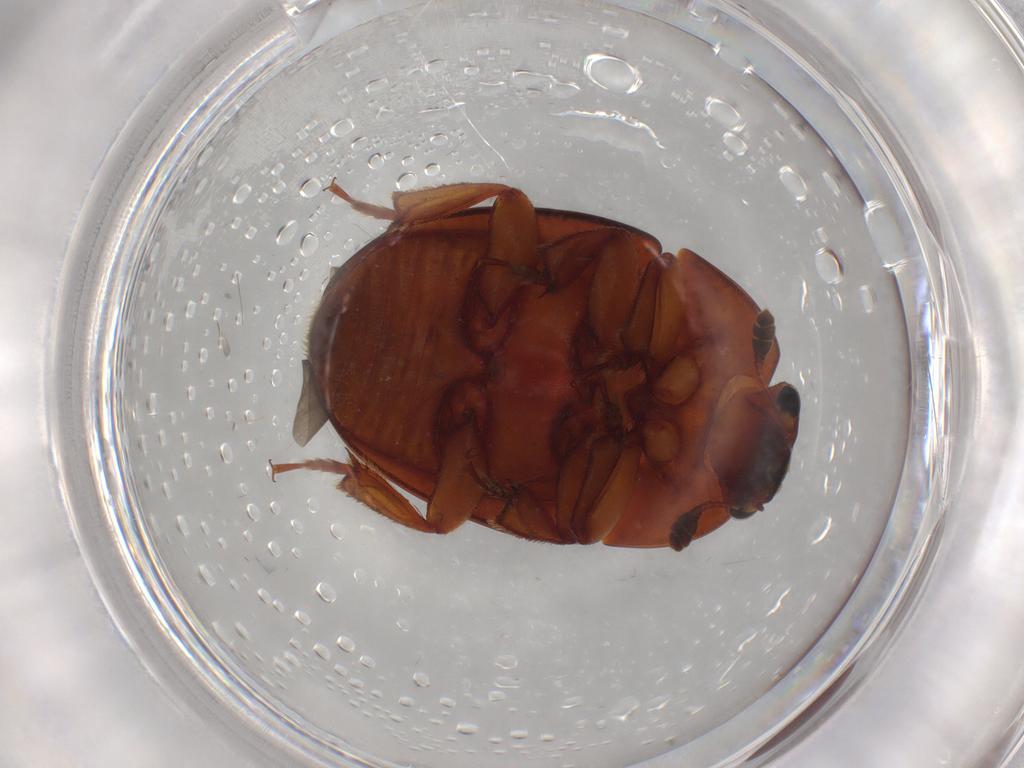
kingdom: Animalia
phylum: Arthropoda
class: Insecta
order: Coleoptera
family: Nitidulidae
